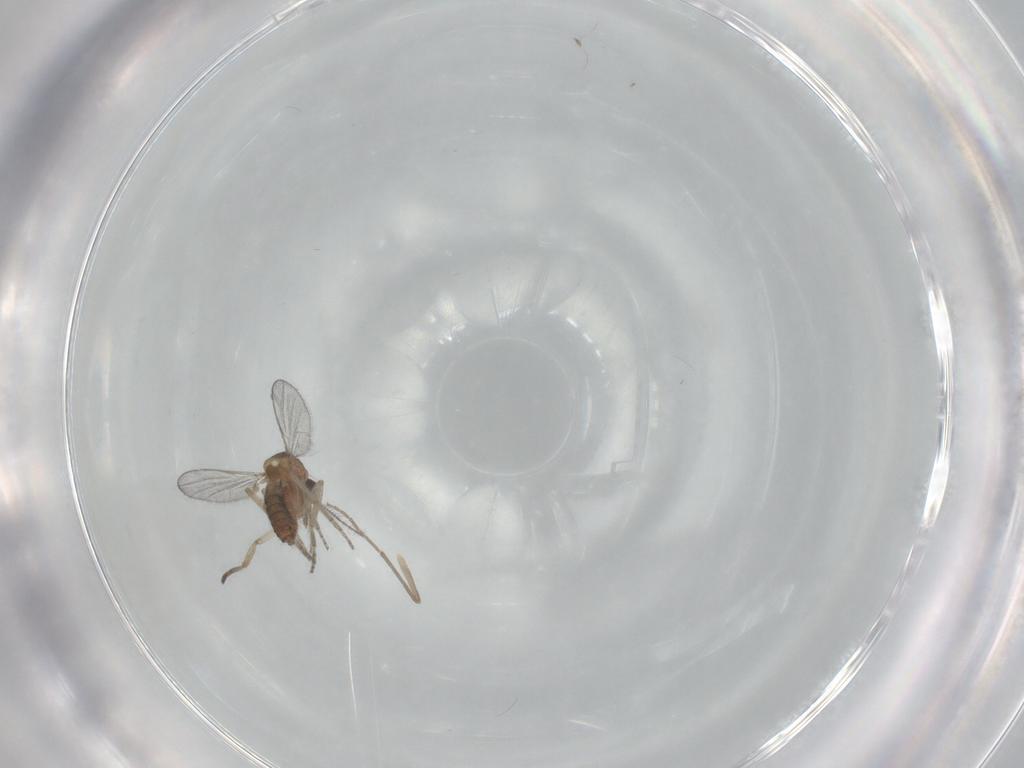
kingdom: Animalia
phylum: Arthropoda
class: Insecta
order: Diptera
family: Ceratopogonidae
